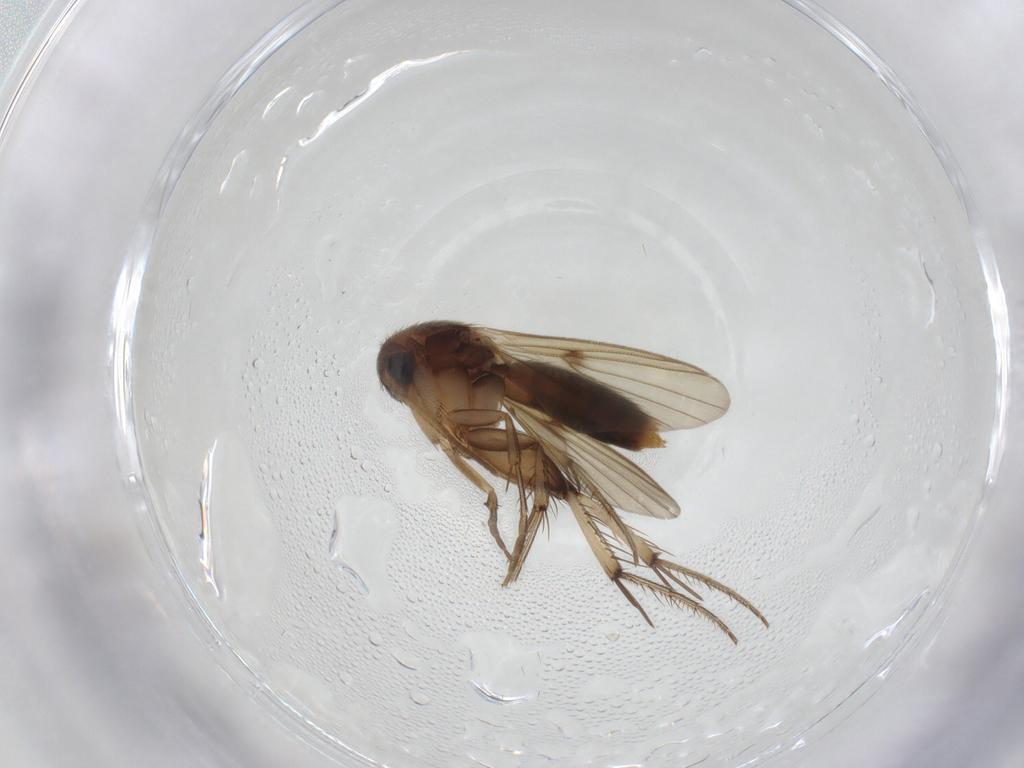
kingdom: Animalia
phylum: Arthropoda
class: Insecta
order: Diptera
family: Mycetophilidae
